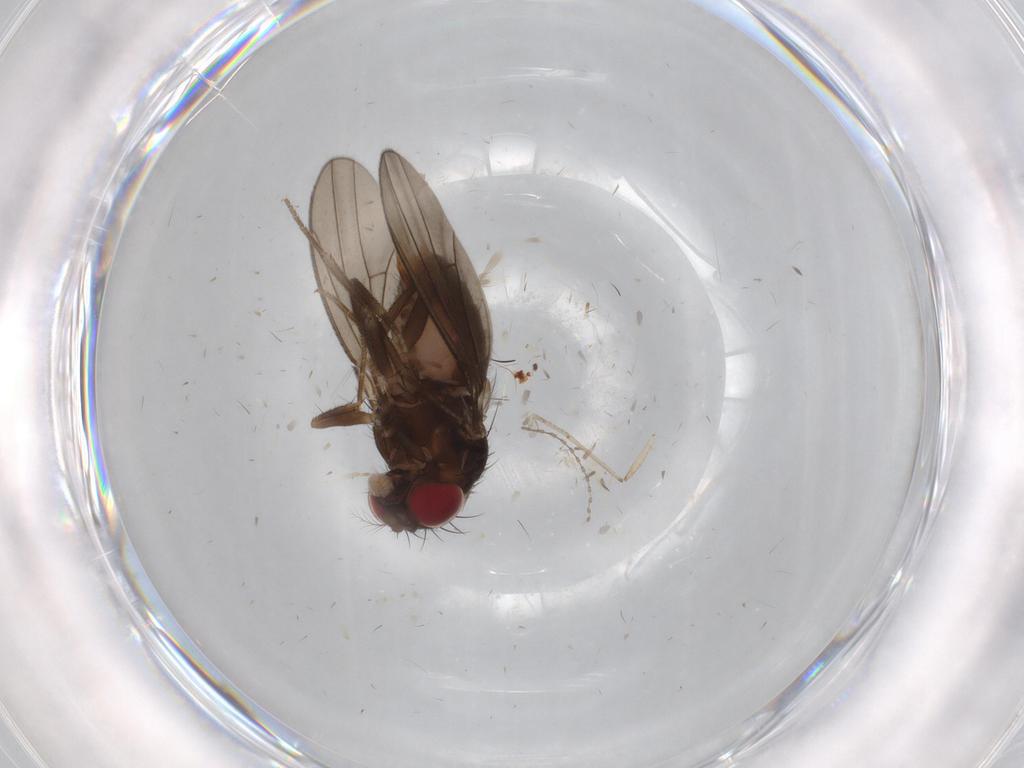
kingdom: Animalia
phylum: Arthropoda
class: Insecta
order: Diptera
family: Drosophilidae
